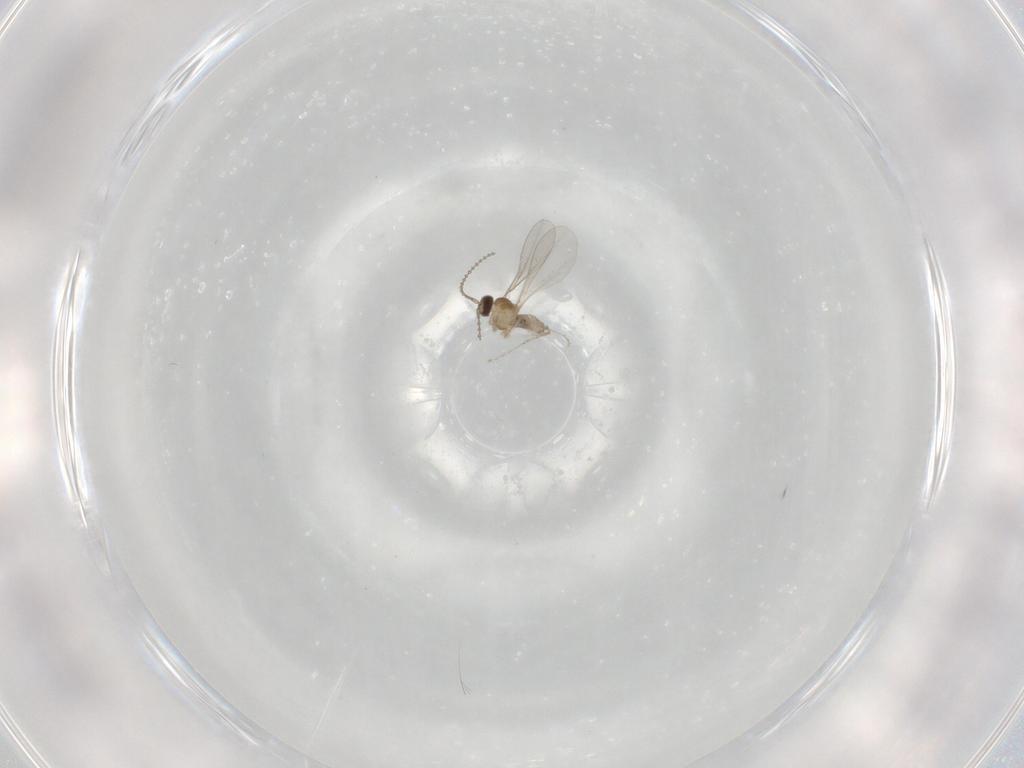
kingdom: Animalia
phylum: Arthropoda
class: Insecta
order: Diptera
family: Cecidomyiidae
